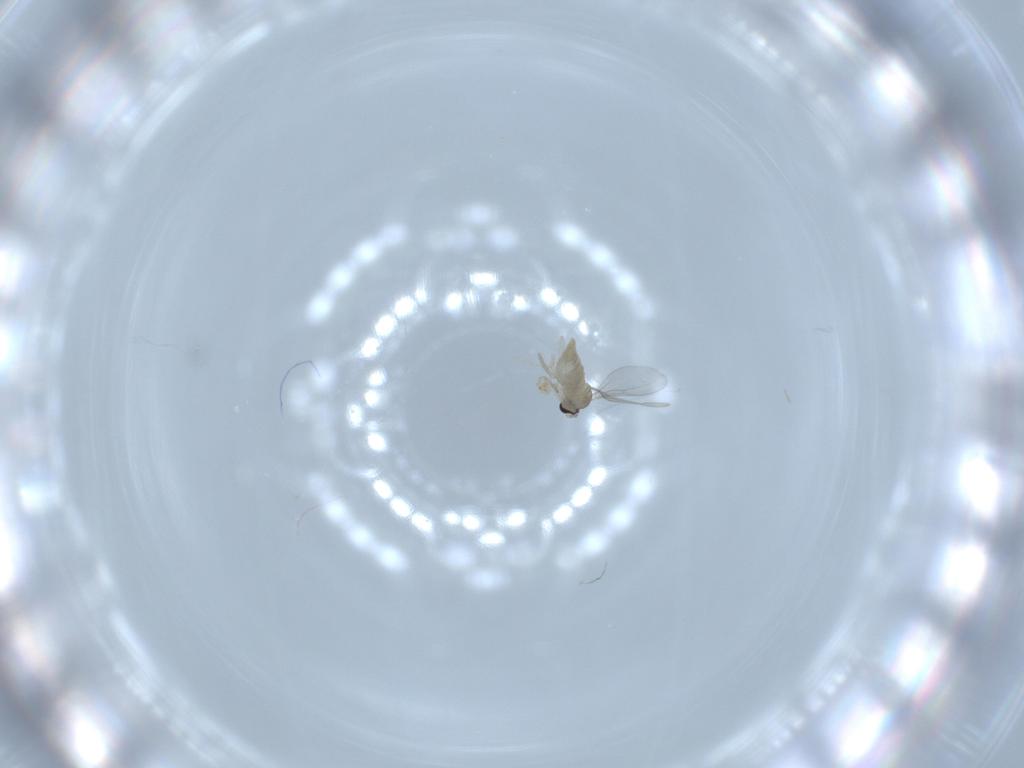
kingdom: Animalia
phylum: Arthropoda
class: Insecta
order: Diptera
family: Cecidomyiidae
